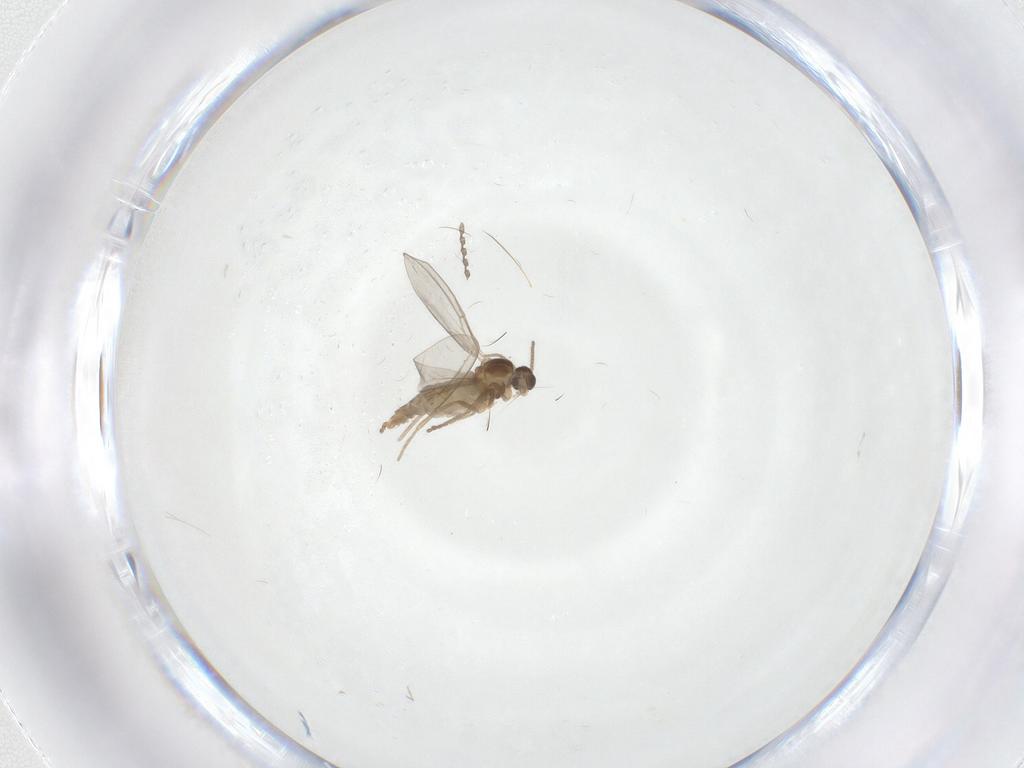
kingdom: Animalia
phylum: Arthropoda
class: Insecta
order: Diptera
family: Cecidomyiidae
